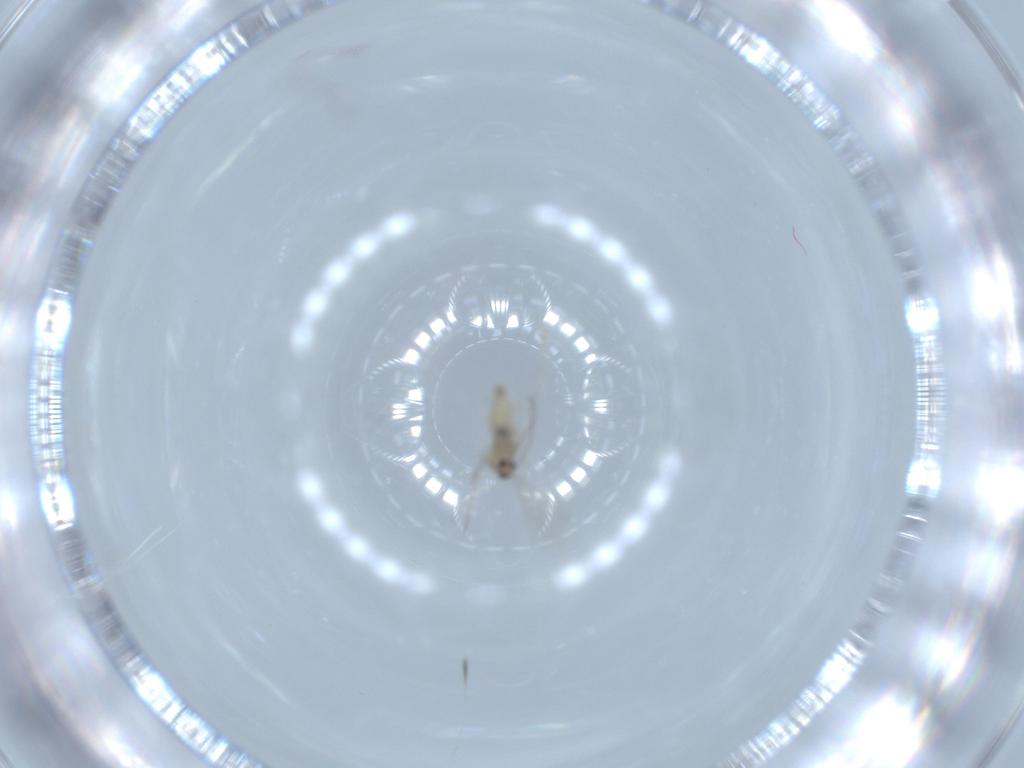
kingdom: Animalia
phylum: Arthropoda
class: Insecta
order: Diptera
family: Cecidomyiidae
